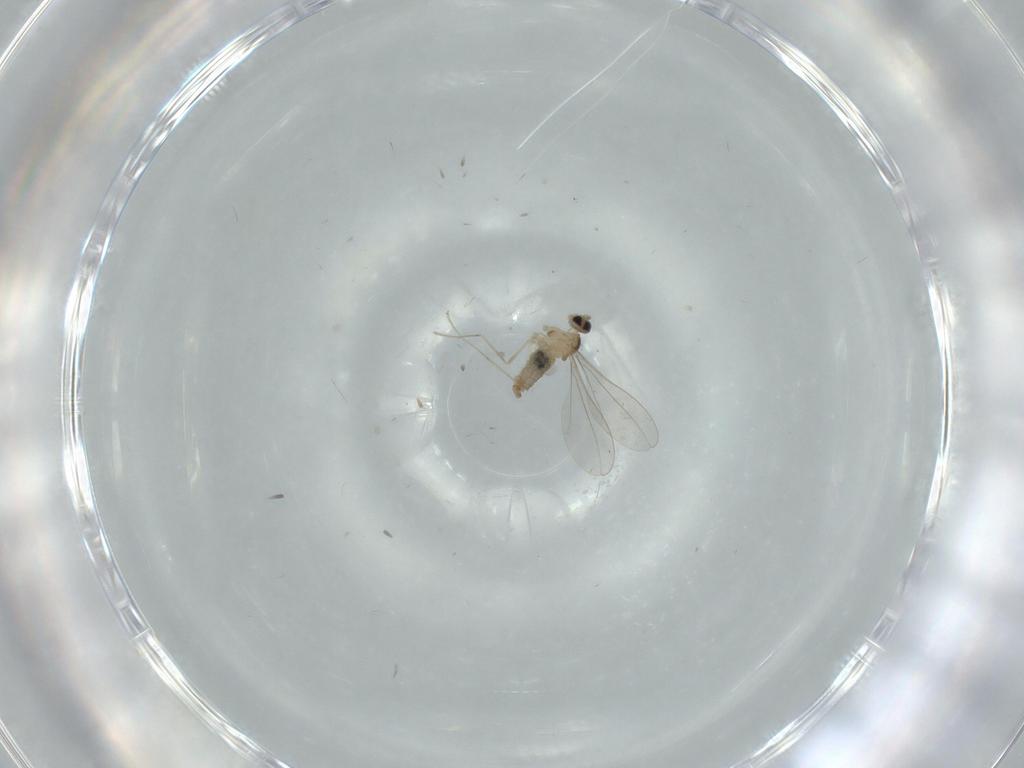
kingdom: Animalia
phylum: Arthropoda
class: Insecta
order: Diptera
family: Cecidomyiidae
